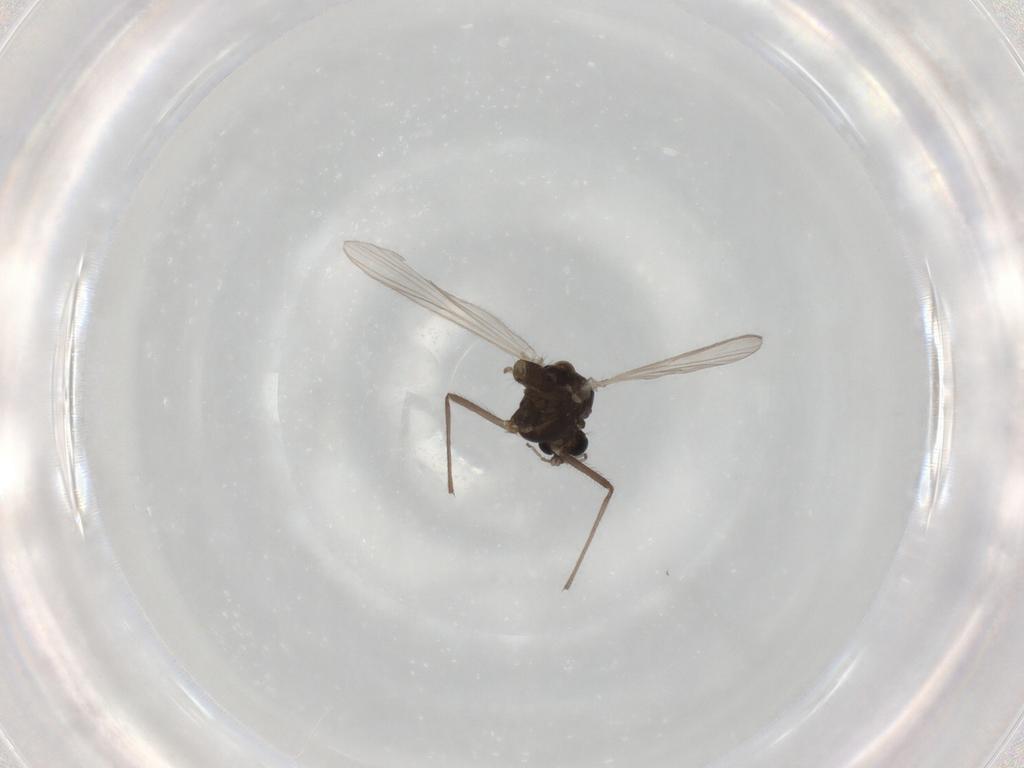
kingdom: Animalia
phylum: Arthropoda
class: Insecta
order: Diptera
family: Chironomidae
